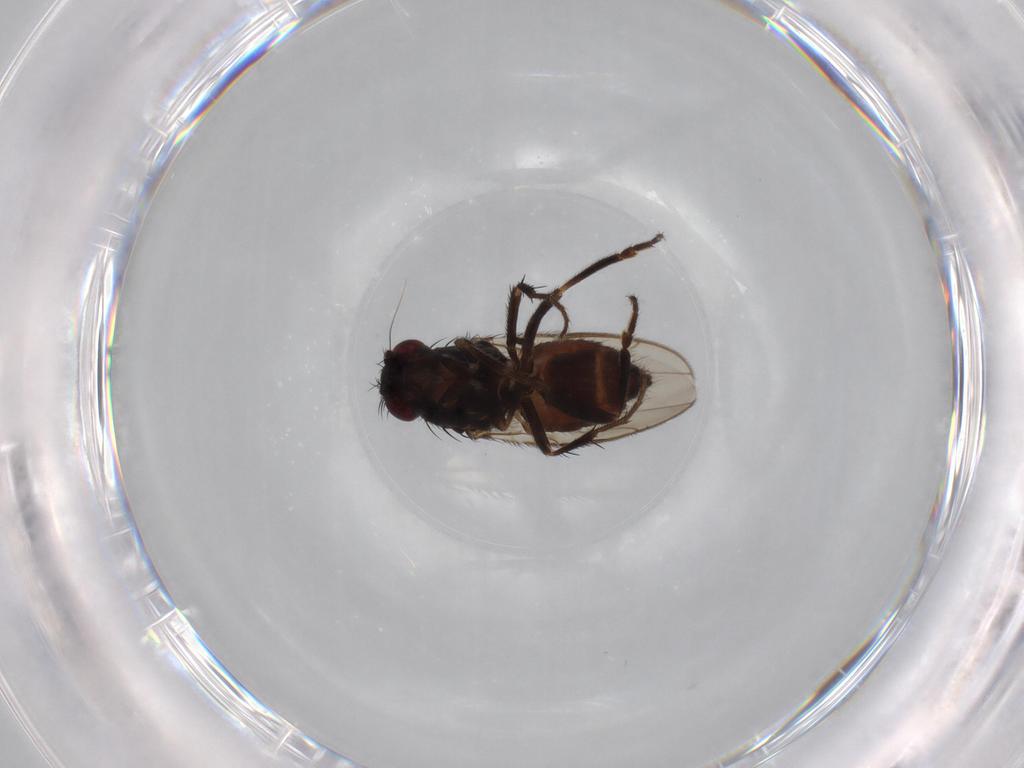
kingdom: Animalia
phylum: Arthropoda
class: Insecta
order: Diptera
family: Sphaeroceridae
